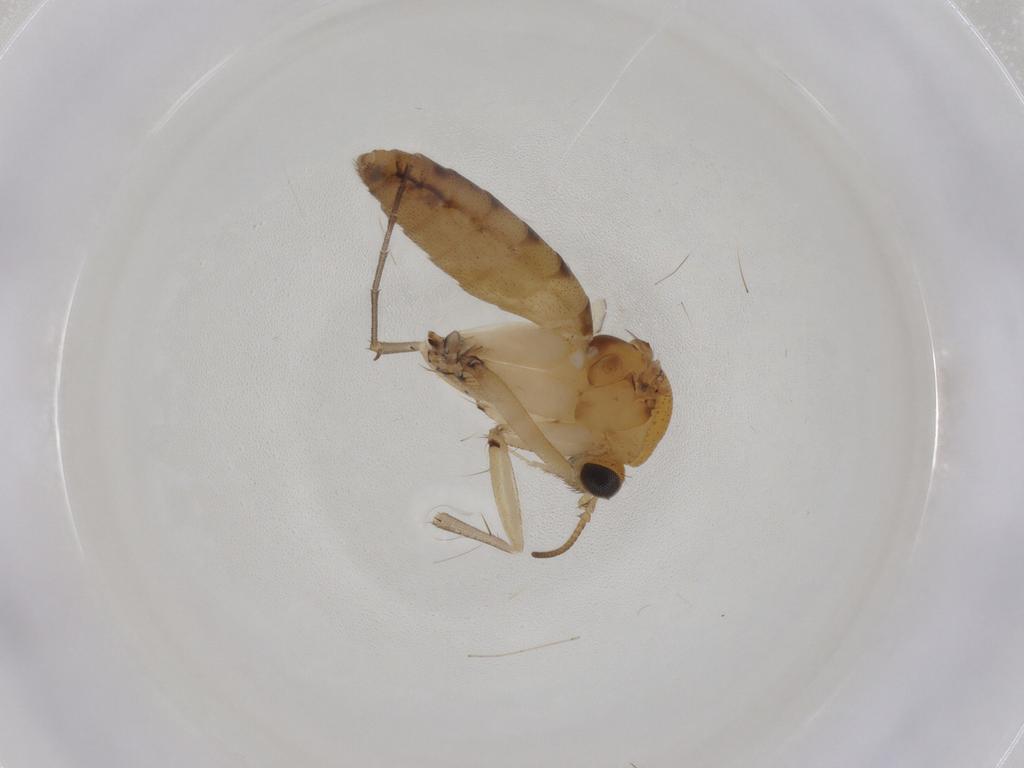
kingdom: Animalia
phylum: Arthropoda
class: Insecta
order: Diptera
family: Mycetophilidae
